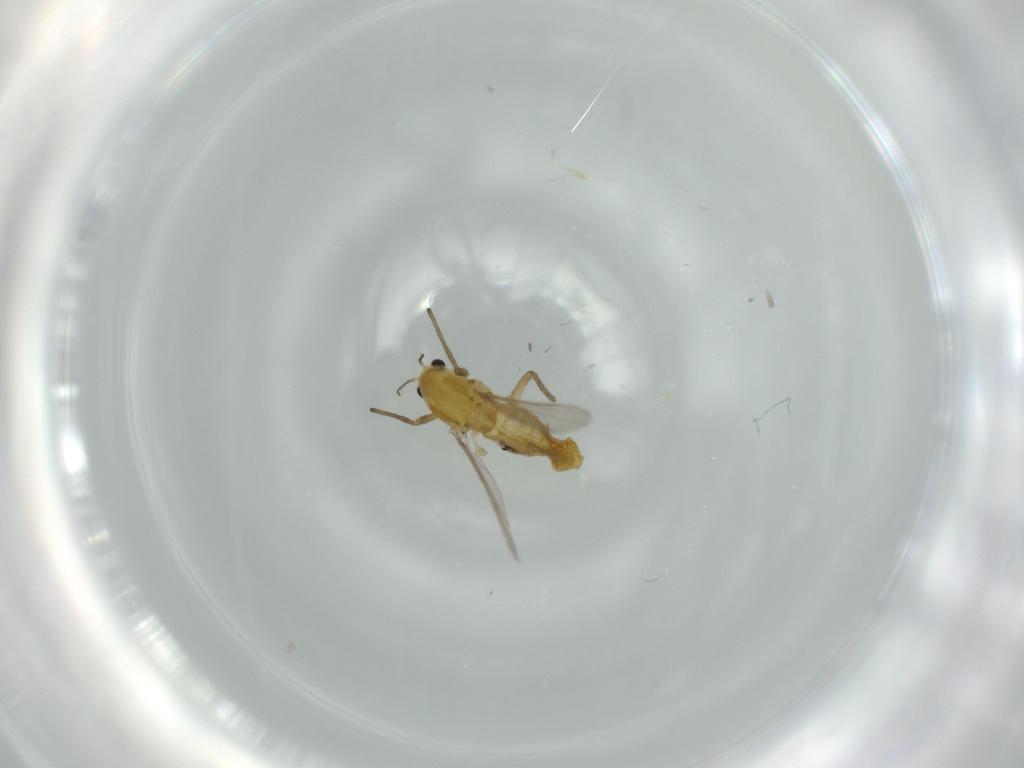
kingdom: Animalia
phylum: Arthropoda
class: Insecta
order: Diptera
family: Chironomidae
